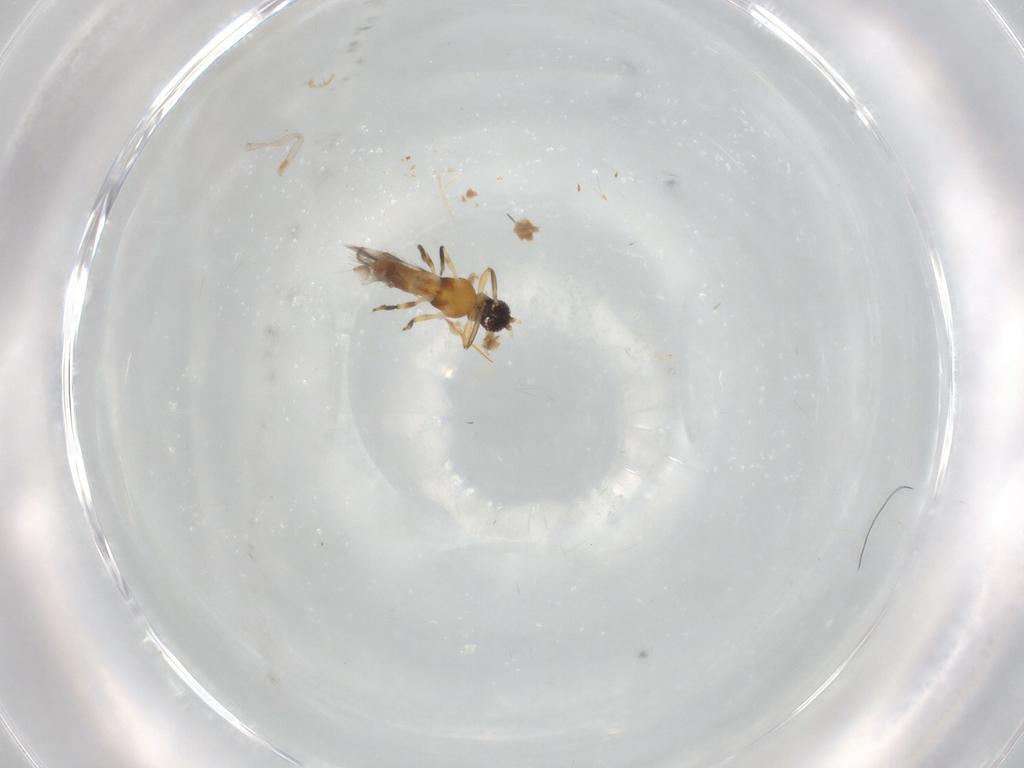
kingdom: Animalia
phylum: Arthropoda
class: Insecta
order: Thysanoptera
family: Aeolothripidae
